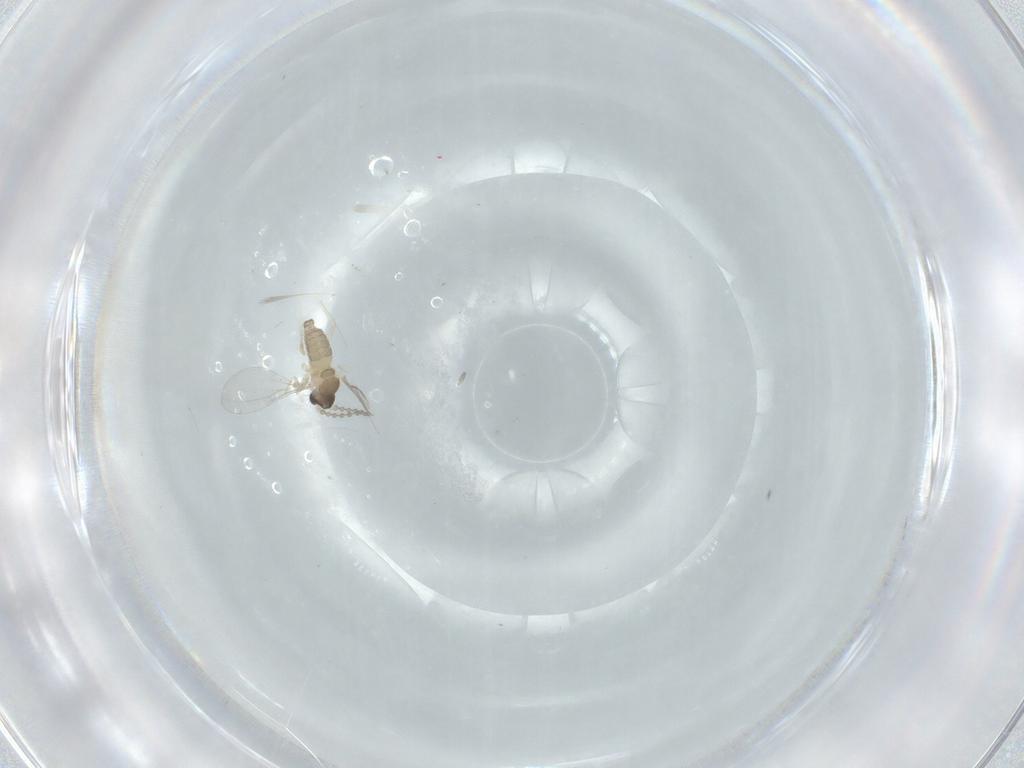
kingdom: Animalia
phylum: Arthropoda
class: Insecta
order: Diptera
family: Cecidomyiidae
